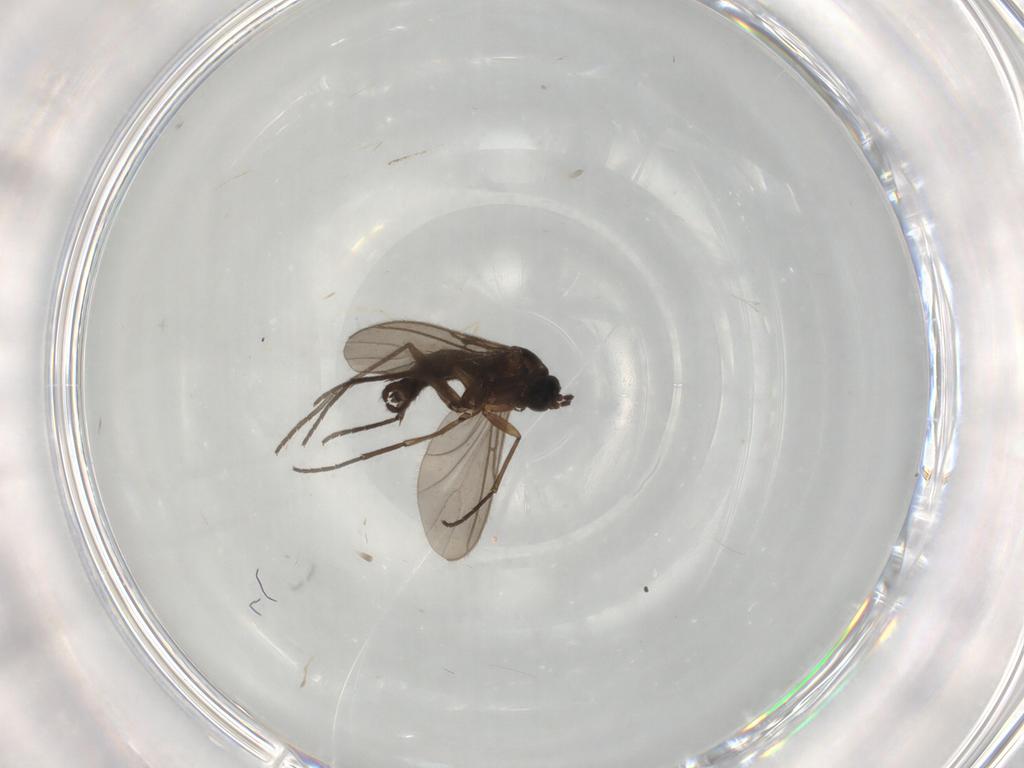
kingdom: Animalia
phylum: Arthropoda
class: Insecta
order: Diptera
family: Sciaridae
